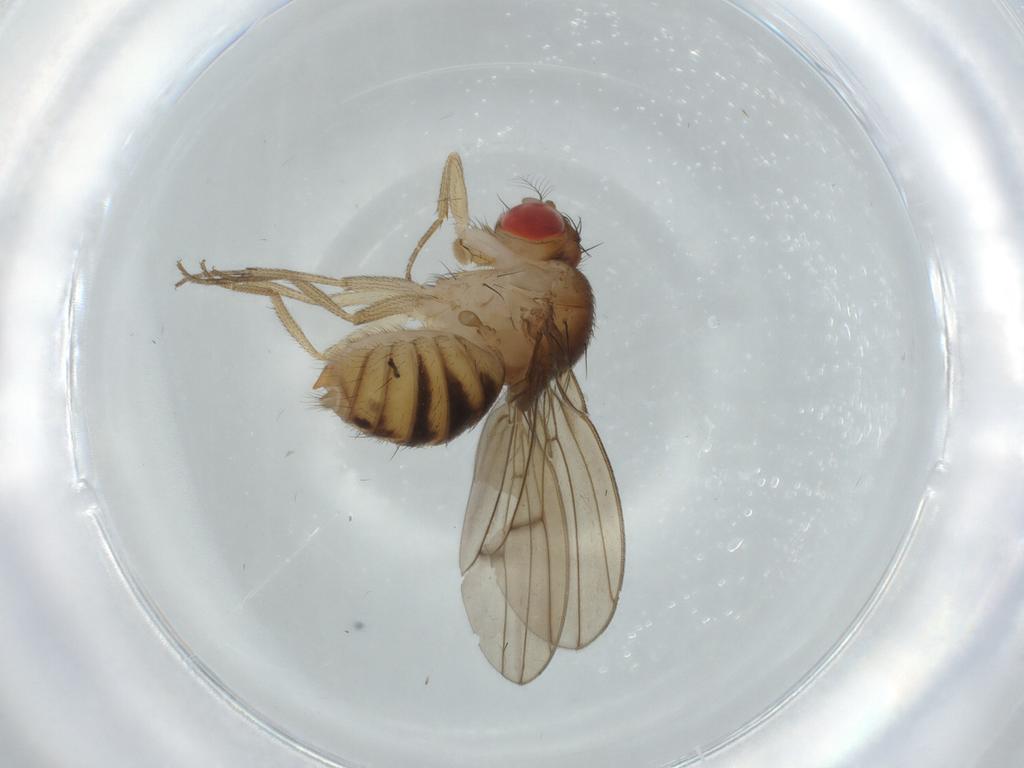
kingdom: Animalia
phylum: Arthropoda
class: Insecta
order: Diptera
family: Drosophilidae
